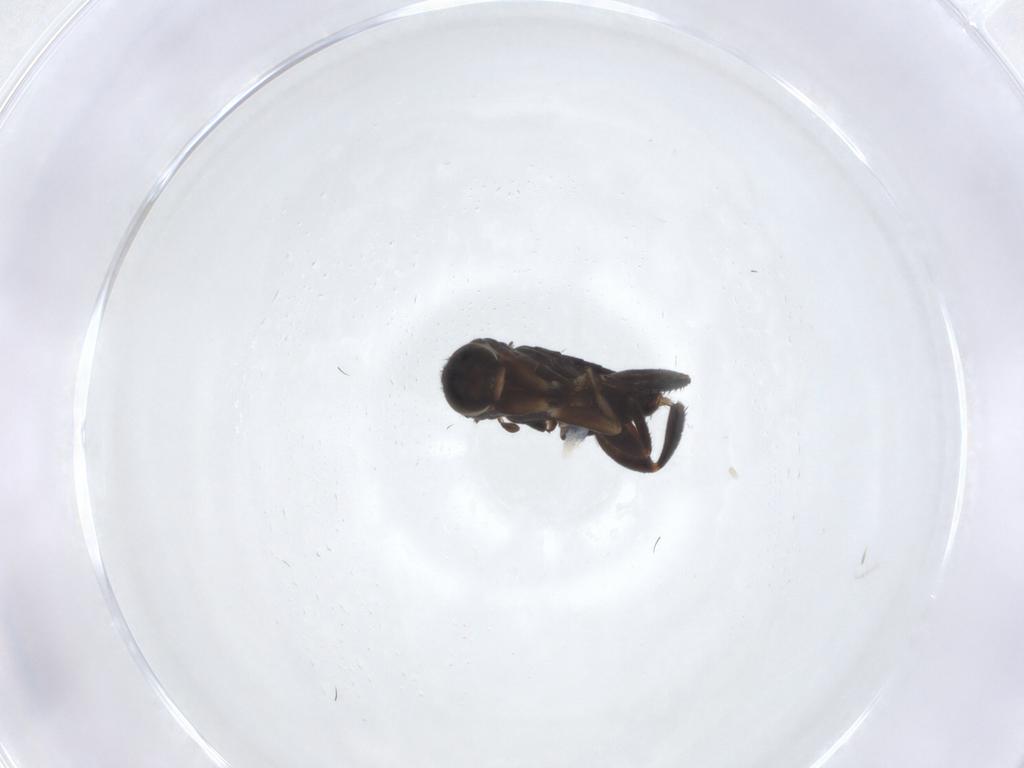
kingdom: Animalia
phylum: Arthropoda
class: Insecta
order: Diptera
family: Phoridae
